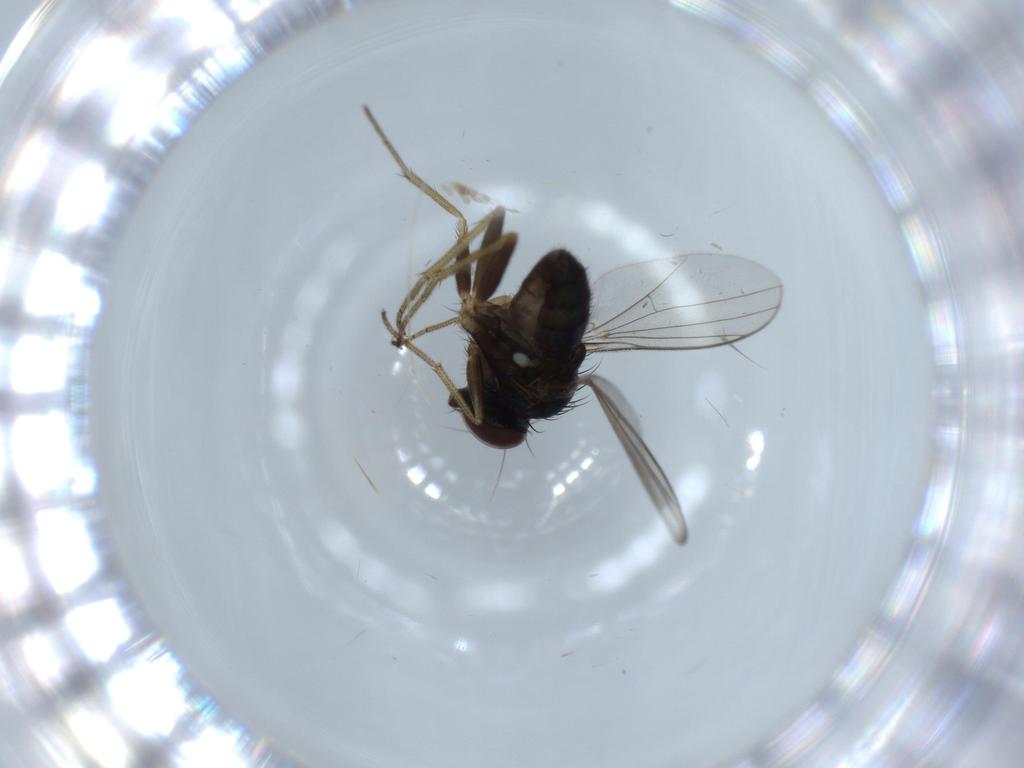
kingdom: Animalia
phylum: Arthropoda
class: Insecta
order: Diptera
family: Dolichopodidae
